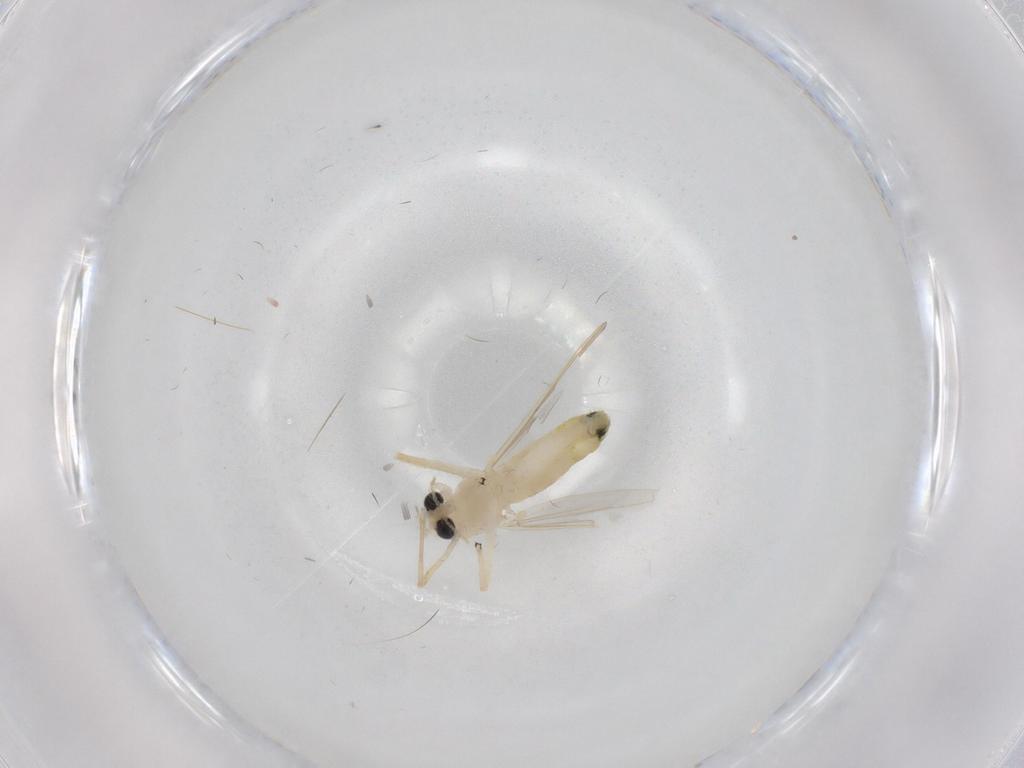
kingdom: Animalia
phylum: Arthropoda
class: Insecta
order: Diptera
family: Chironomidae
